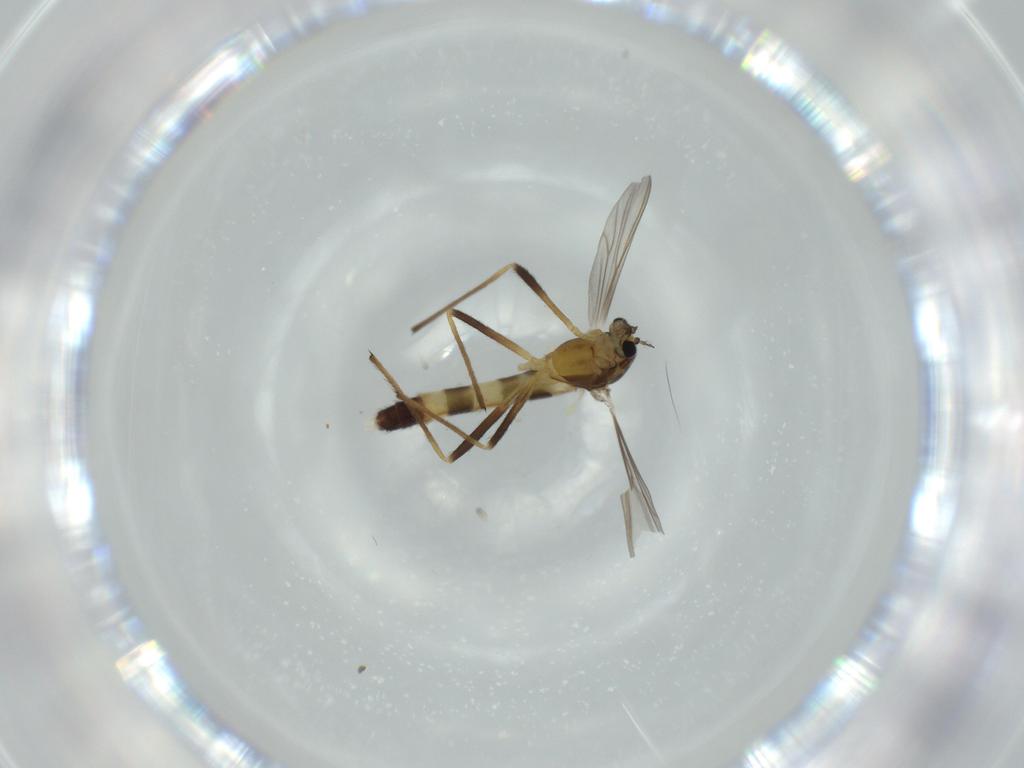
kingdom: Animalia
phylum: Arthropoda
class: Insecta
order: Diptera
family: Chironomidae
